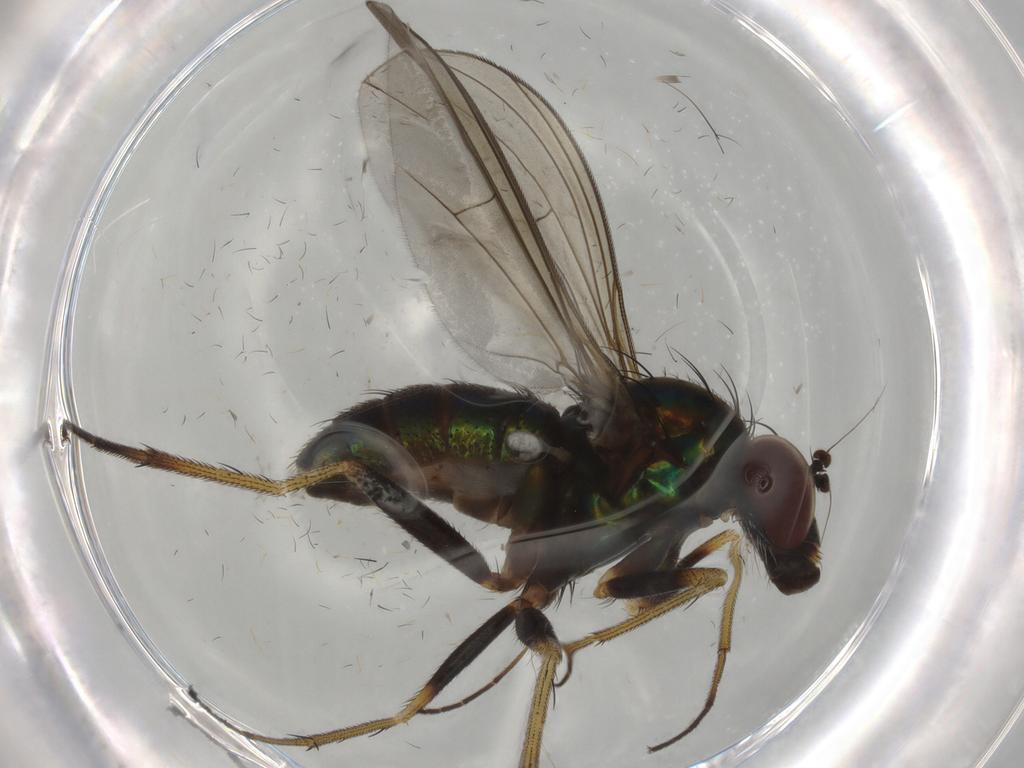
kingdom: Animalia
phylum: Arthropoda
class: Insecta
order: Diptera
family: Dolichopodidae
